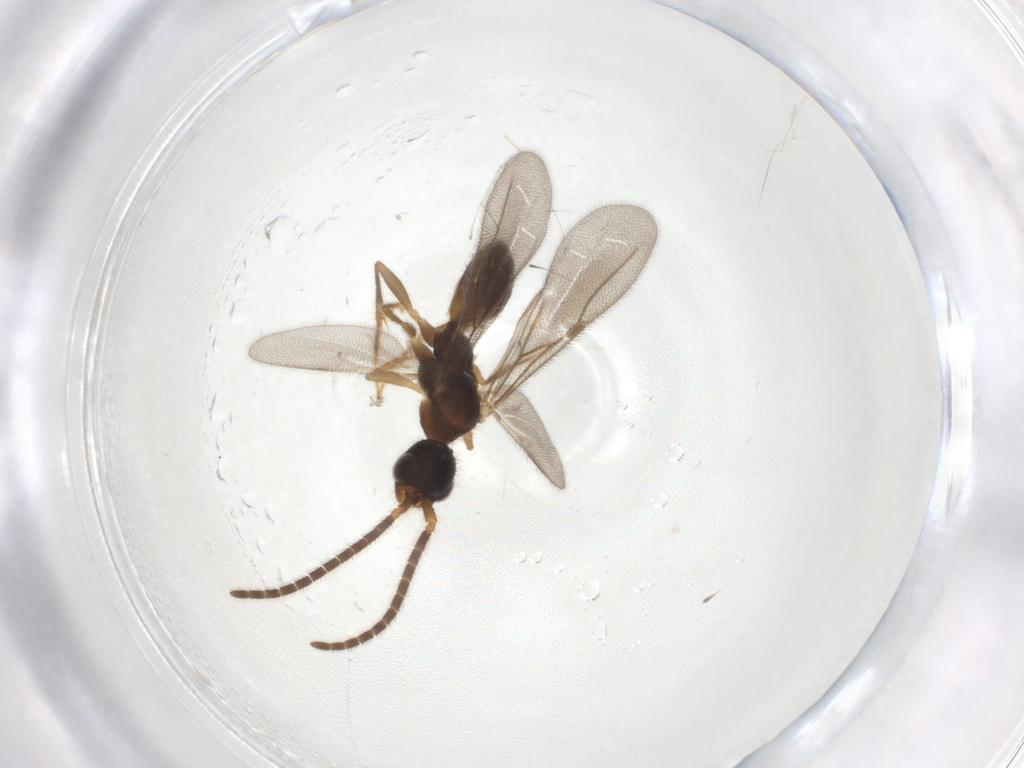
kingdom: Animalia
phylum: Arthropoda
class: Insecta
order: Hymenoptera
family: Bethylidae
